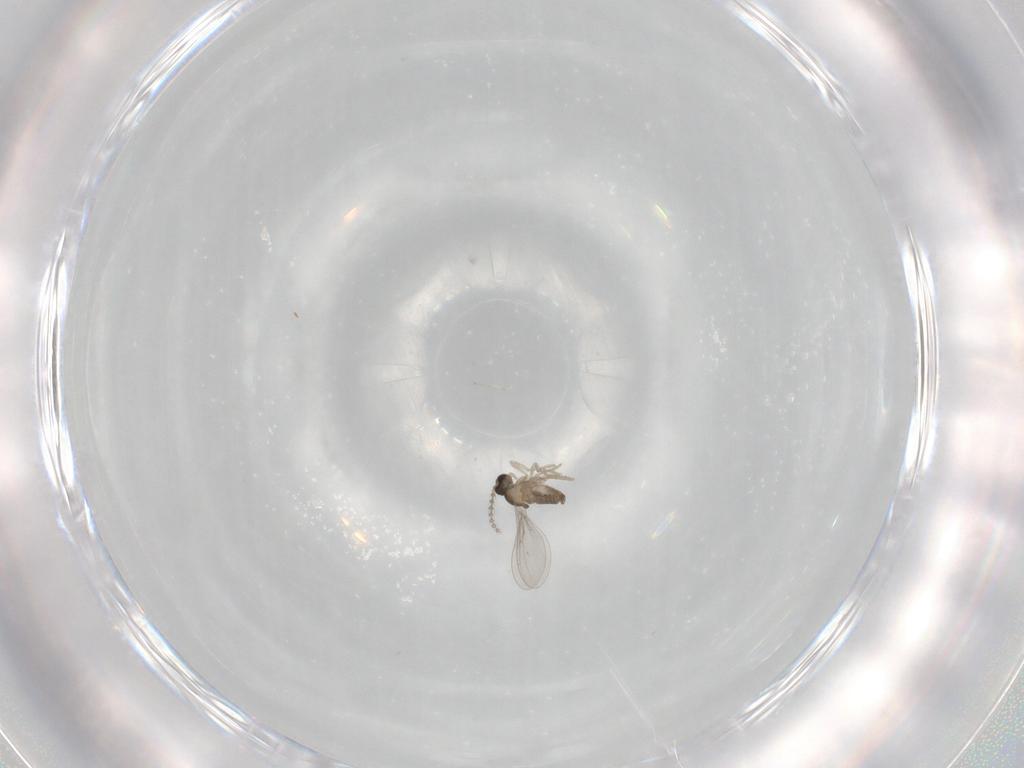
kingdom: Animalia
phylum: Arthropoda
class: Insecta
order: Diptera
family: Cecidomyiidae
